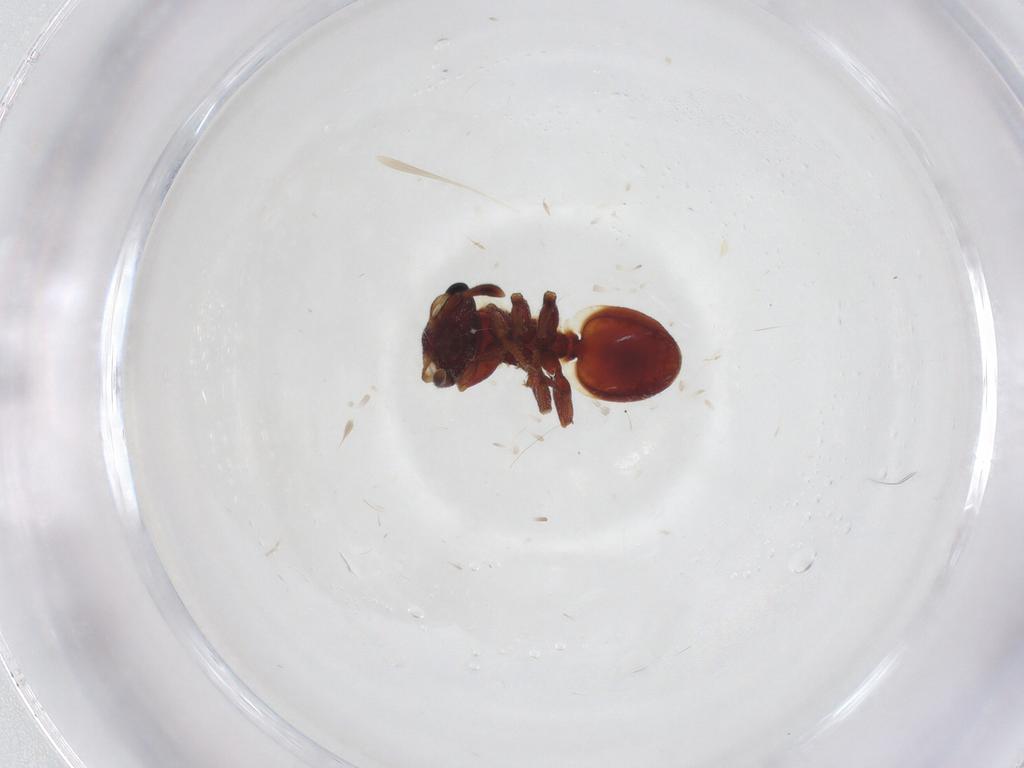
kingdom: Animalia
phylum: Arthropoda
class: Insecta
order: Hymenoptera
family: Formicidae
